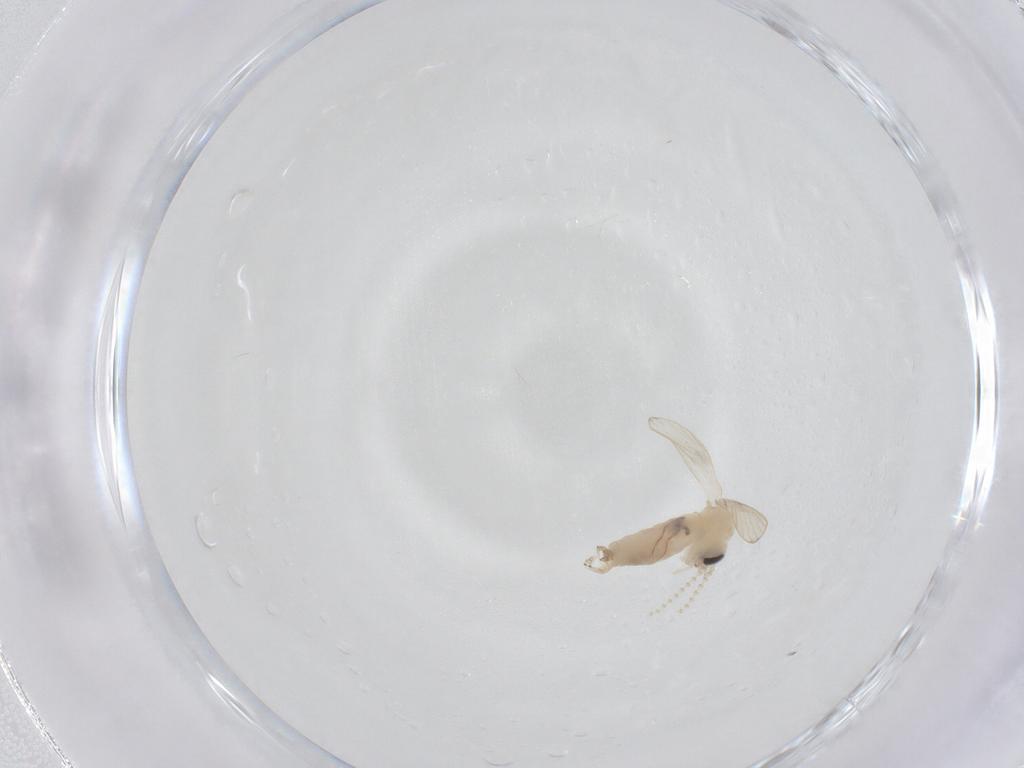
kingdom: Animalia
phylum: Arthropoda
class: Insecta
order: Diptera
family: Psychodidae
